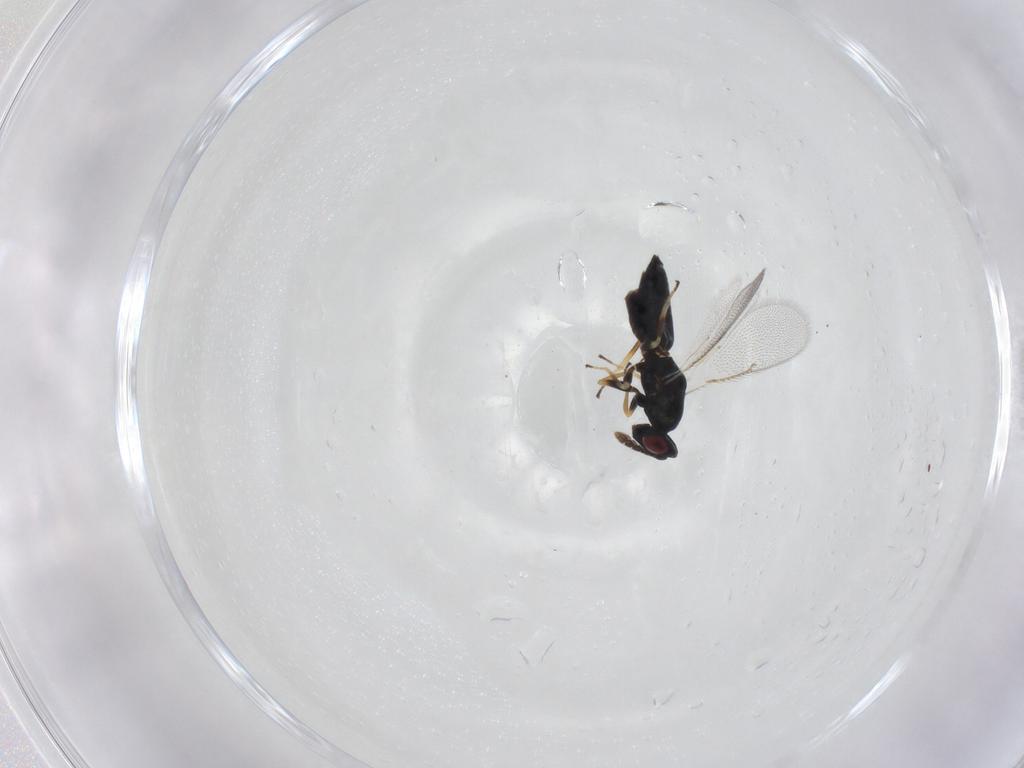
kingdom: Animalia
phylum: Arthropoda
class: Insecta
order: Hymenoptera
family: Eulophidae
